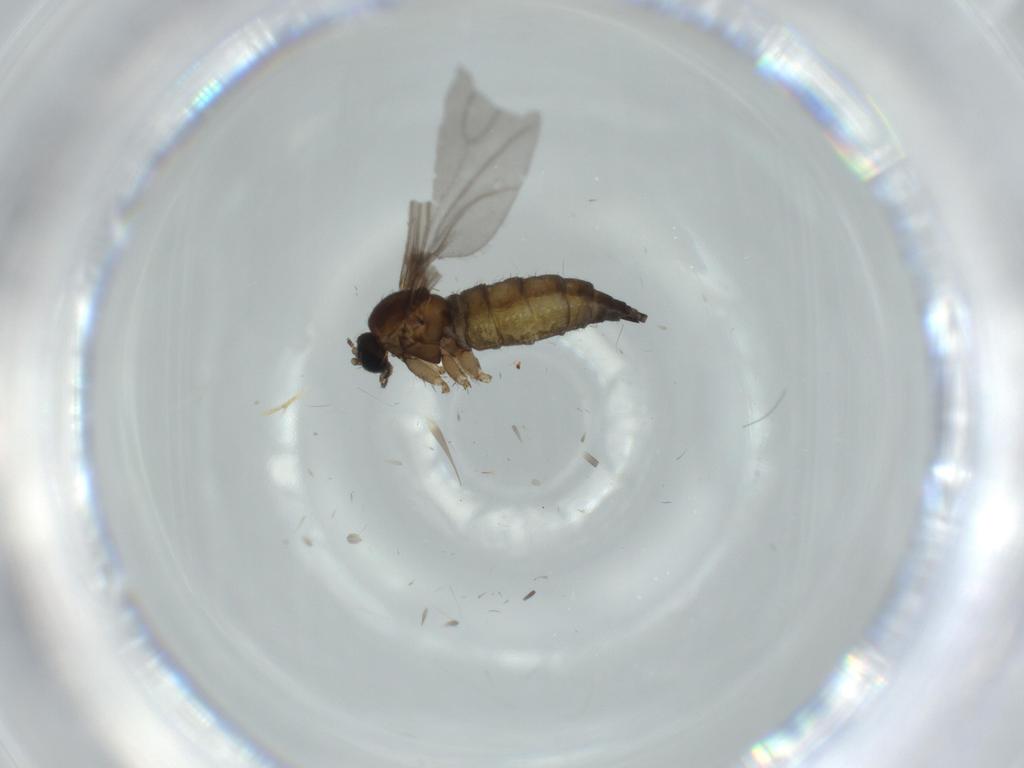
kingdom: Animalia
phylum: Arthropoda
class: Insecta
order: Diptera
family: Sciaridae
